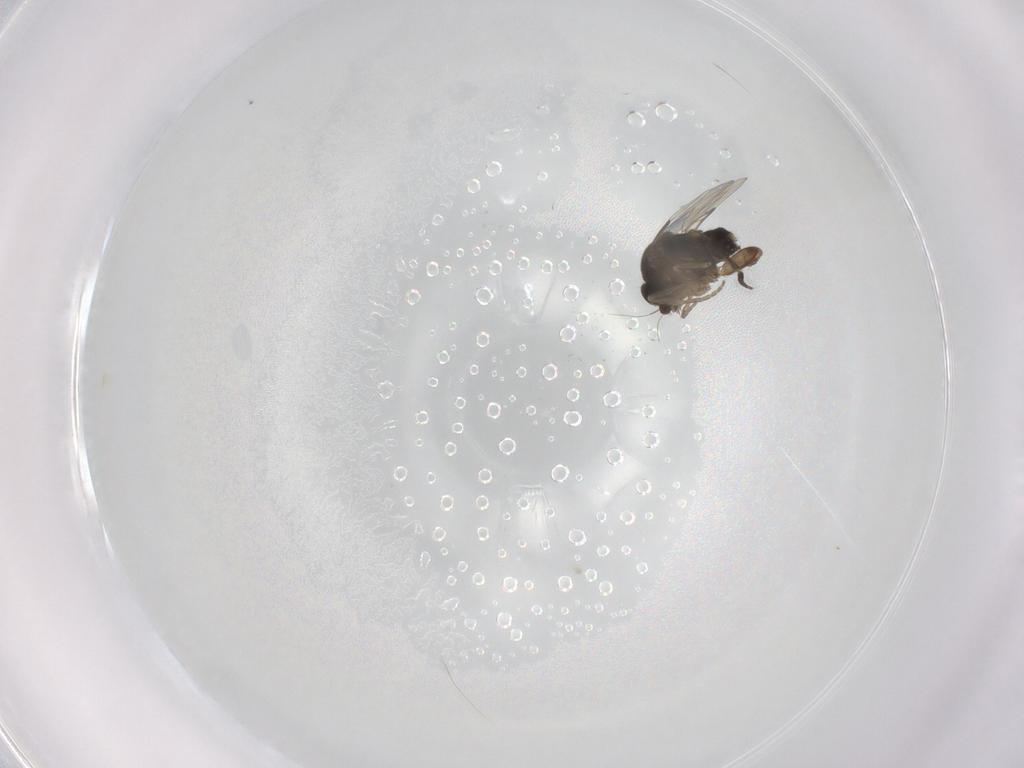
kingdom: Animalia
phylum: Arthropoda
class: Insecta
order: Diptera
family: Phoridae
